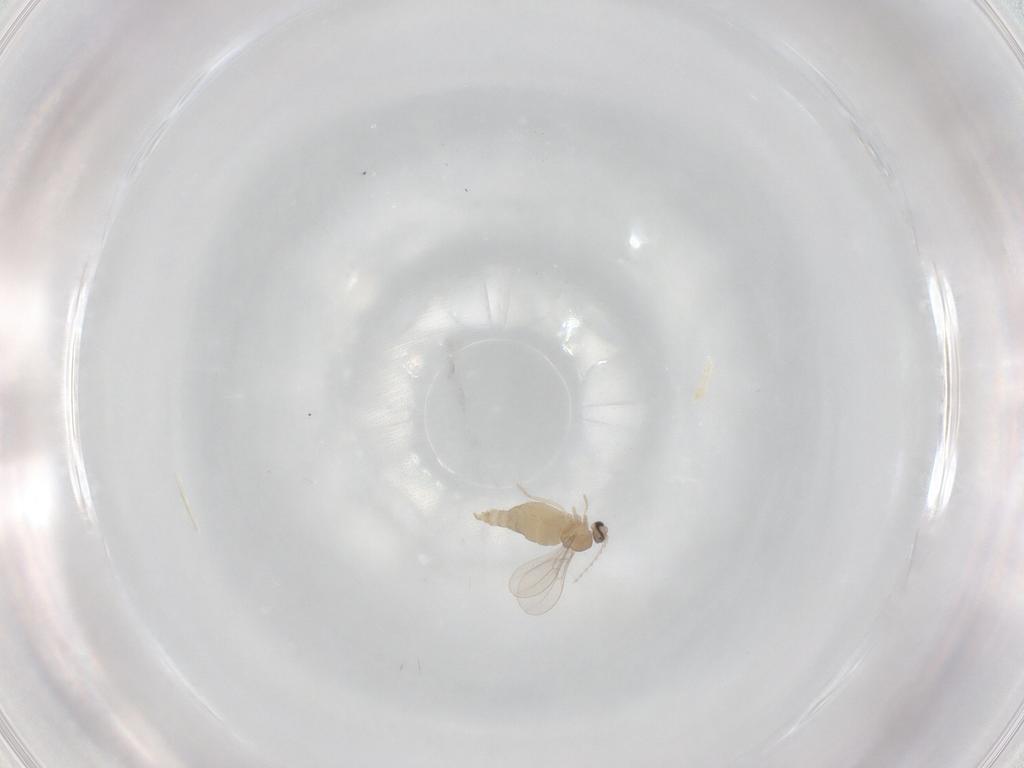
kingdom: Animalia
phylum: Arthropoda
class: Insecta
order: Diptera
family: Cecidomyiidae
